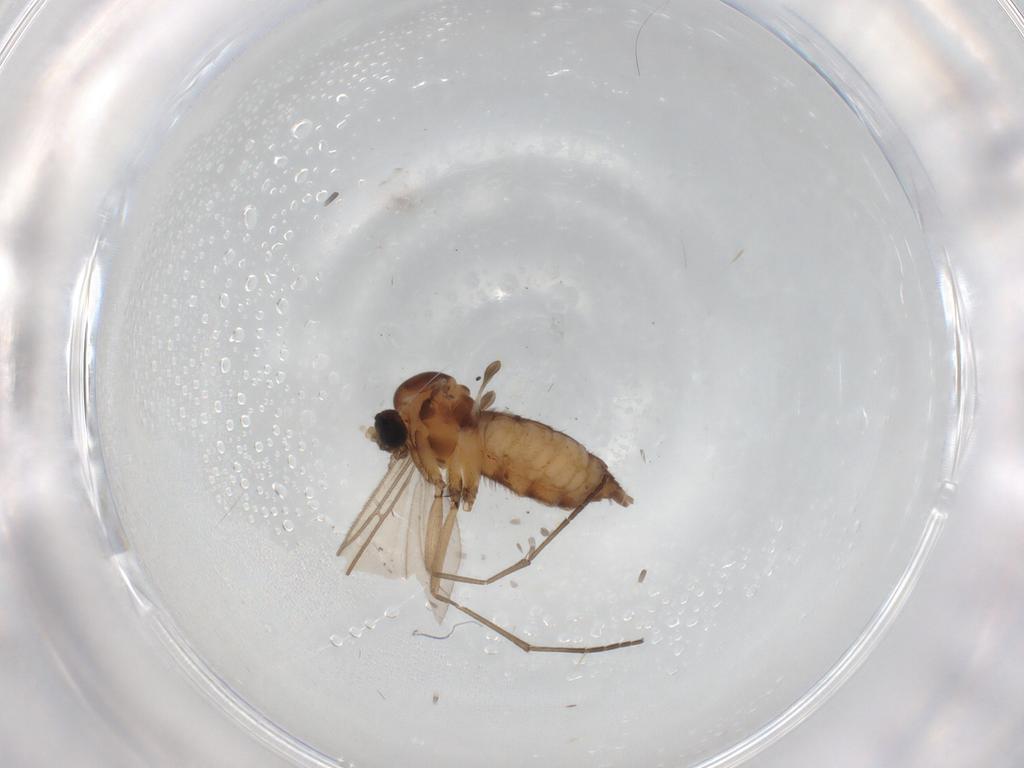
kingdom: Animalia
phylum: Arthropoda
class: Insecta
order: Diptera
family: Sciaridae
